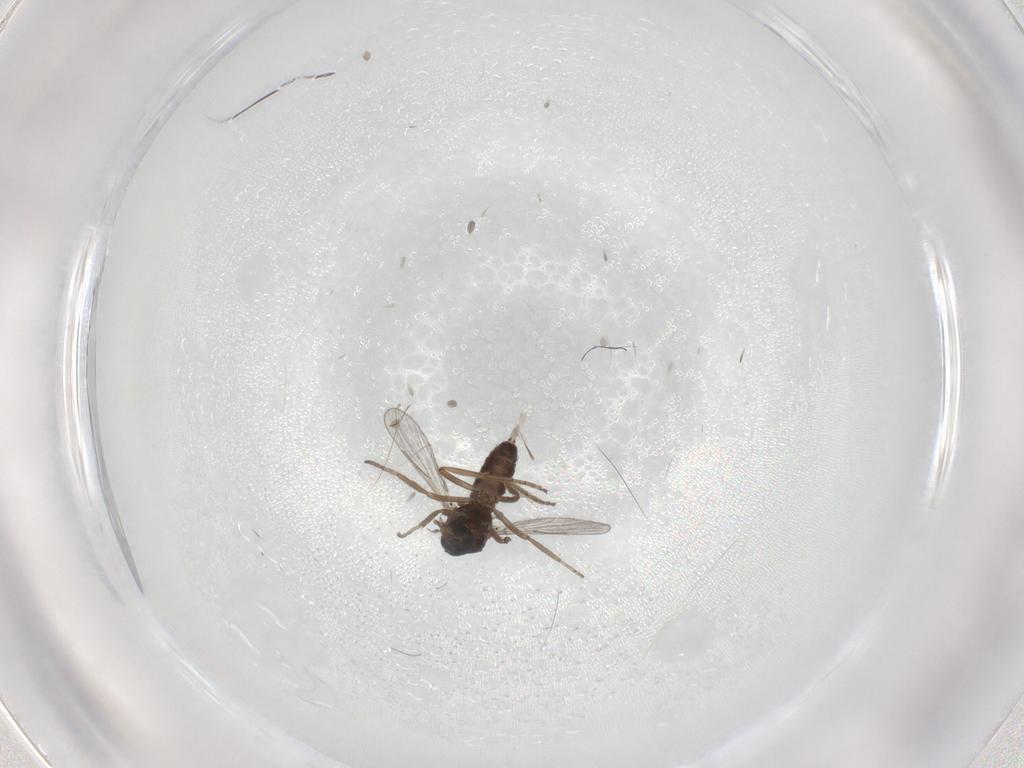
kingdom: Animalia
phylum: Arthropoda
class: Insecta
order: Diptera
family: Ceratopogonidae
